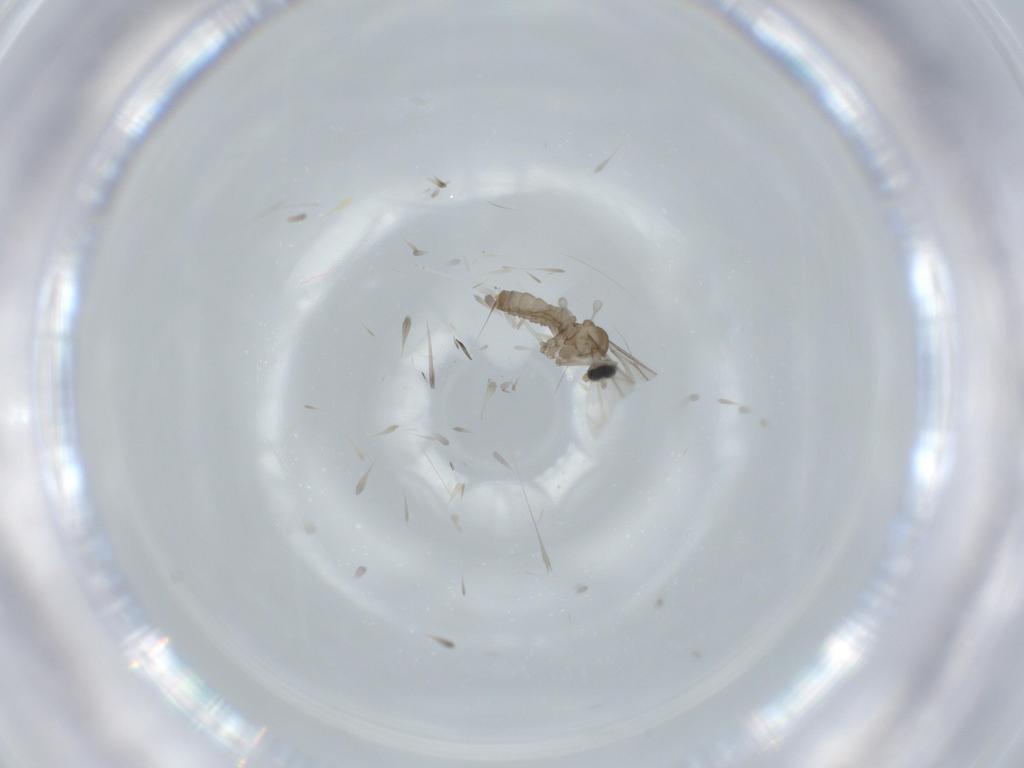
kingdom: Animalia
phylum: Arthropoda
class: Insecta
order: Diptera
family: Cecidomyiidae
